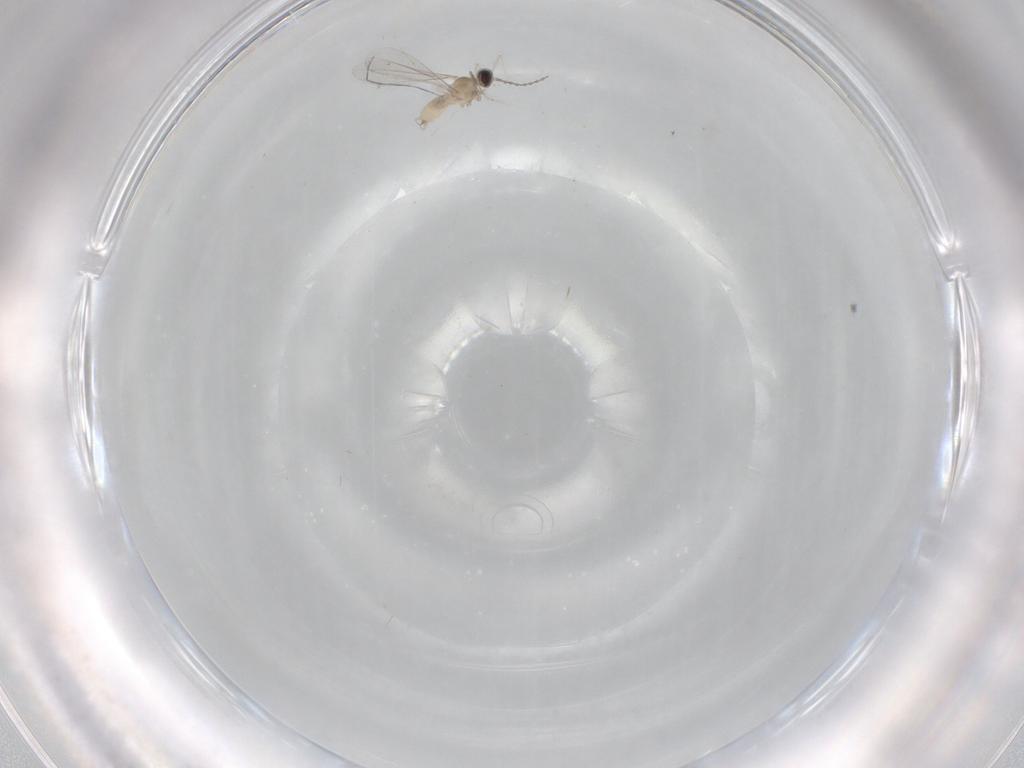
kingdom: Animalia
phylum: Arthropoda
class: Insecta
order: Diptera
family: Cecidomyiidae
